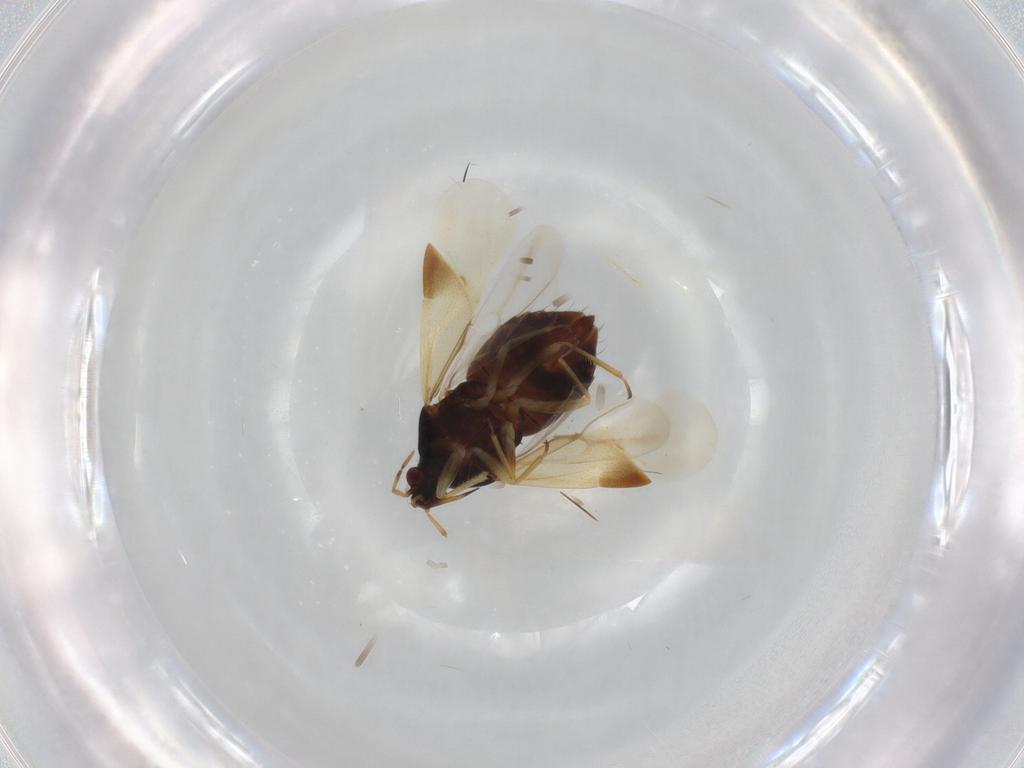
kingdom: Animalia
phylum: Arthropoda
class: Insecta
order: Hemiptera
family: Anthocoridae
